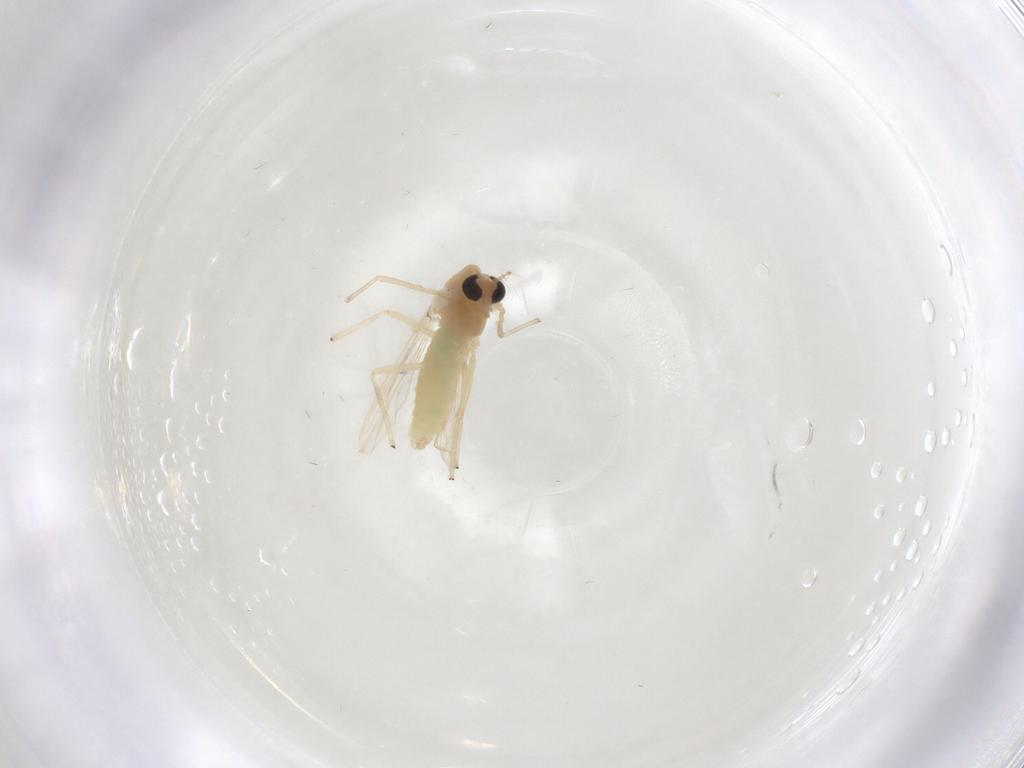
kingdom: Animalia
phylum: Arthropoda
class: Insecta
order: Diptera
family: Chironomidae
